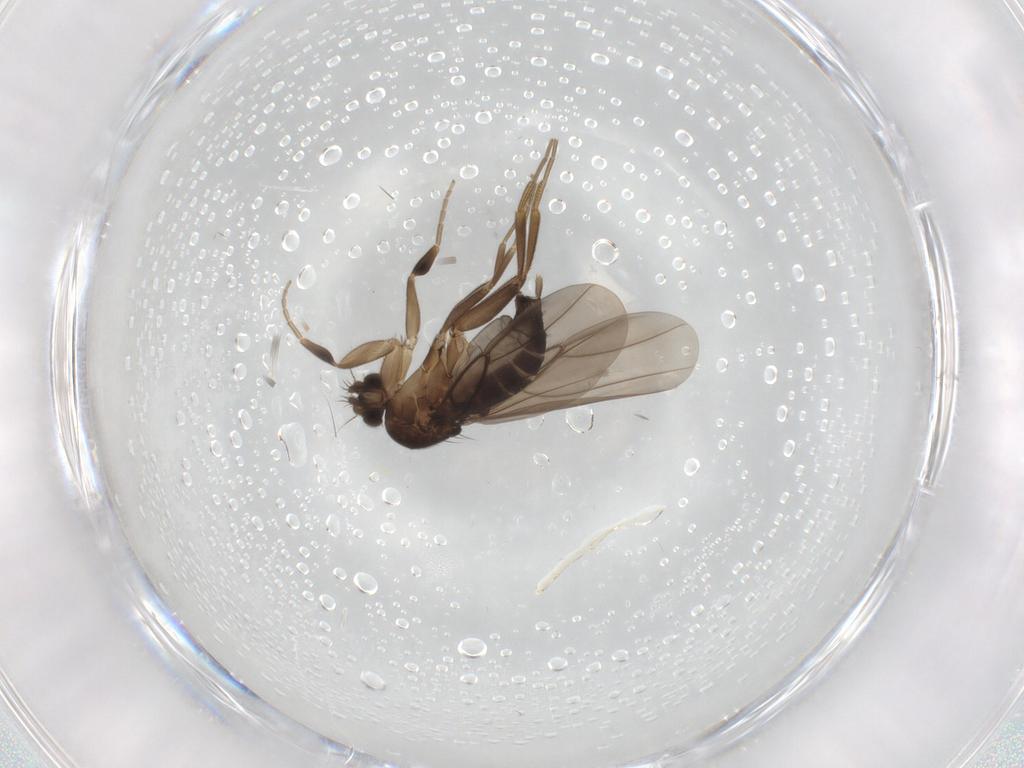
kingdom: Animalia
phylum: Arthropoda
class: Insecta
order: Diptera
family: Phoridae
